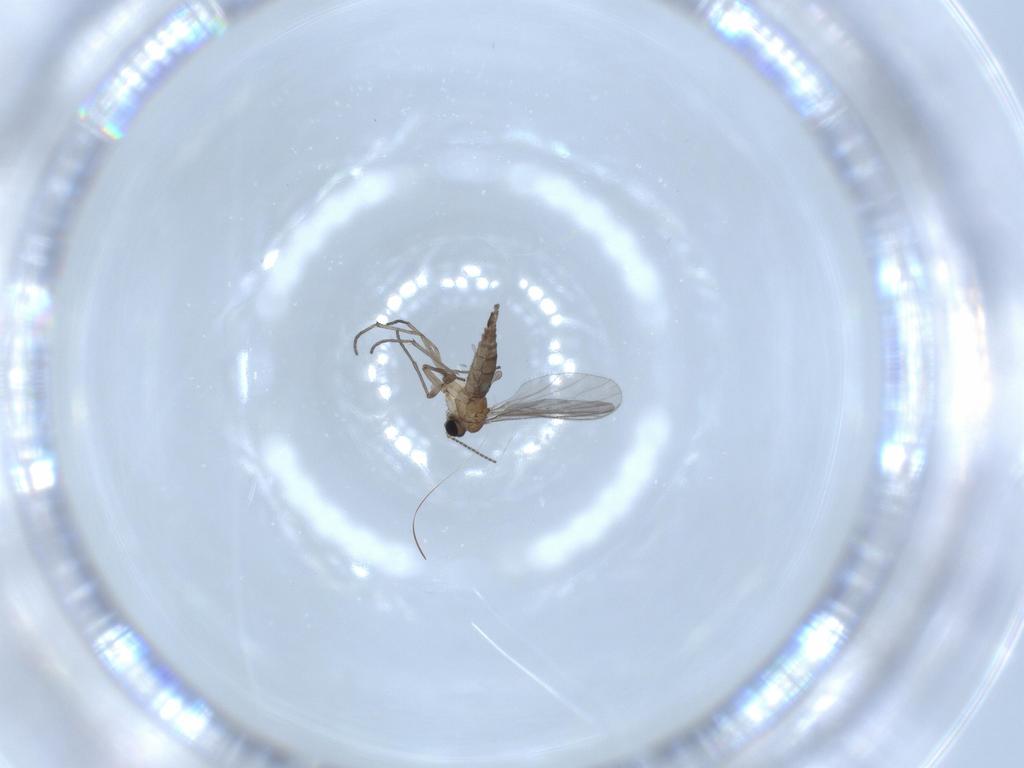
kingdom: Animalia
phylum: Arthropoda
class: Insecta
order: Diptera
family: Sciaridae
